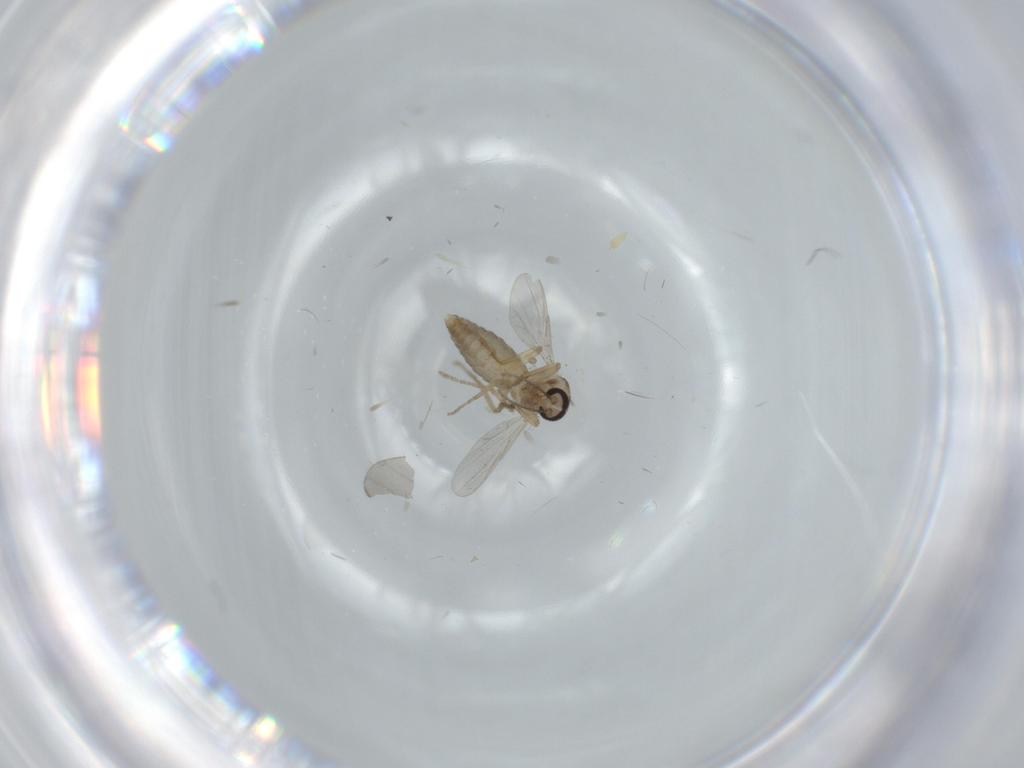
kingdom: Animalia
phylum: Arthropoda
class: Insecta
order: Diptera
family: Ceratopogonidae
